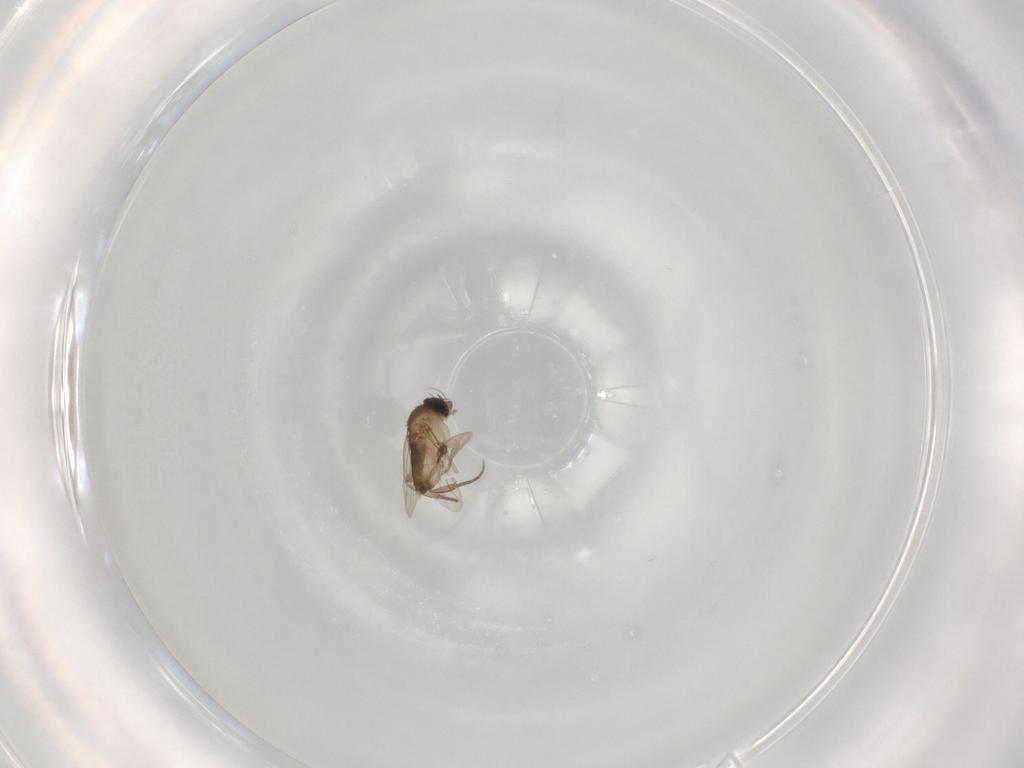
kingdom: Animalia
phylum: Arthropoda
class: Insecta
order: Diptera
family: Phoridae
